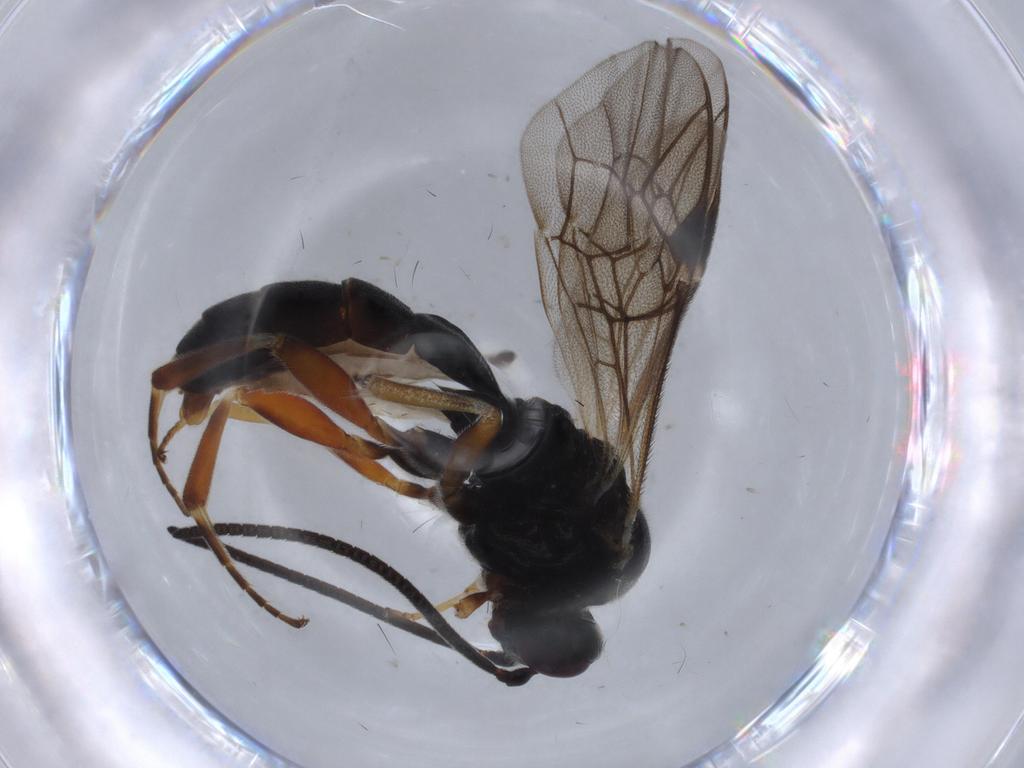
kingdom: Animalia
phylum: Arthropoda
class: Insecta
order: Hymenoptera
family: Ichneumonidae
